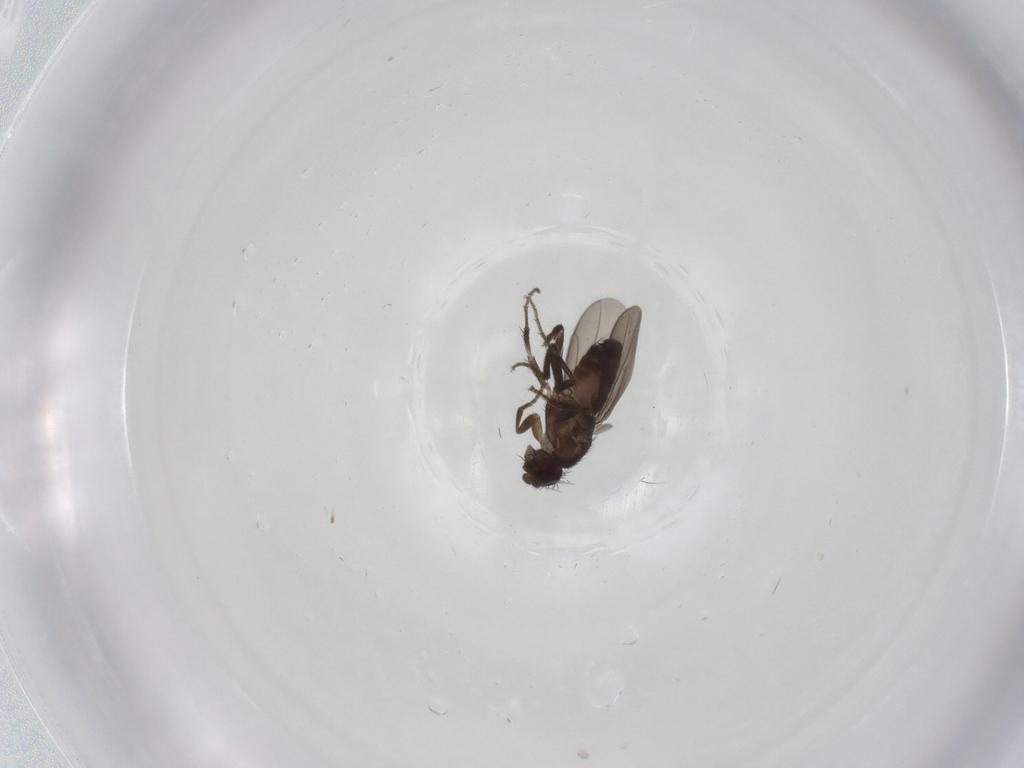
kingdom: Animalia
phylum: Arthropoda
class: Insecta
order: Diptera
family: Sphaeroceridae
